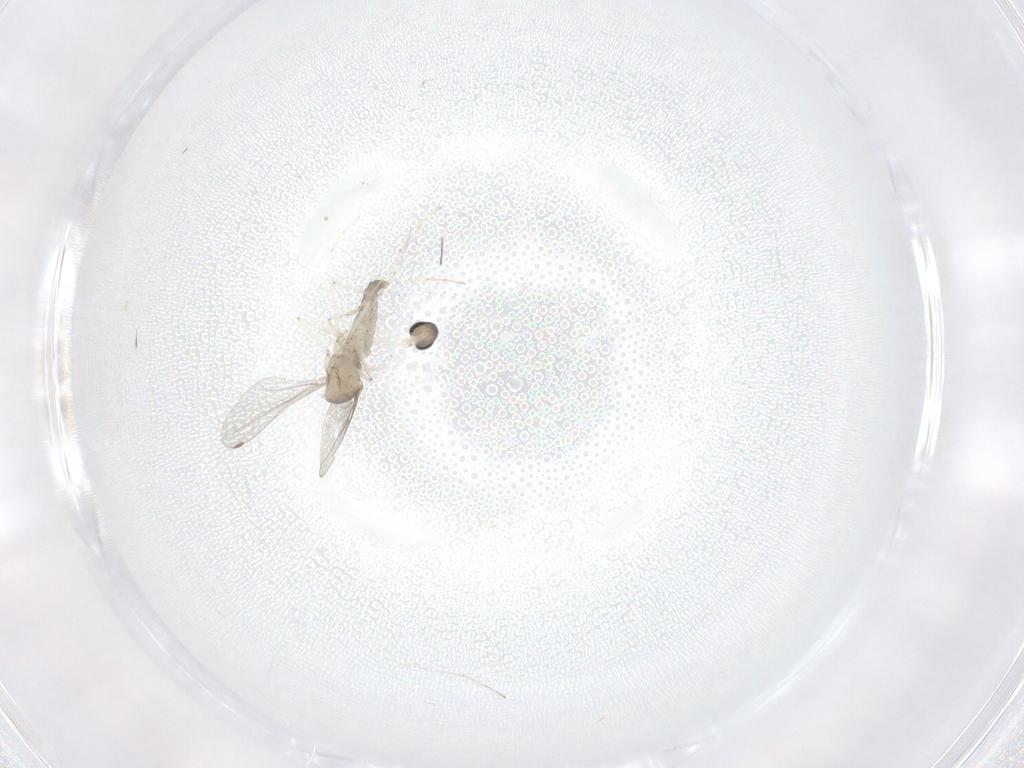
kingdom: Animalia
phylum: Arthropoda
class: Insecta
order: Diptera
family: Cecidomyiidae
